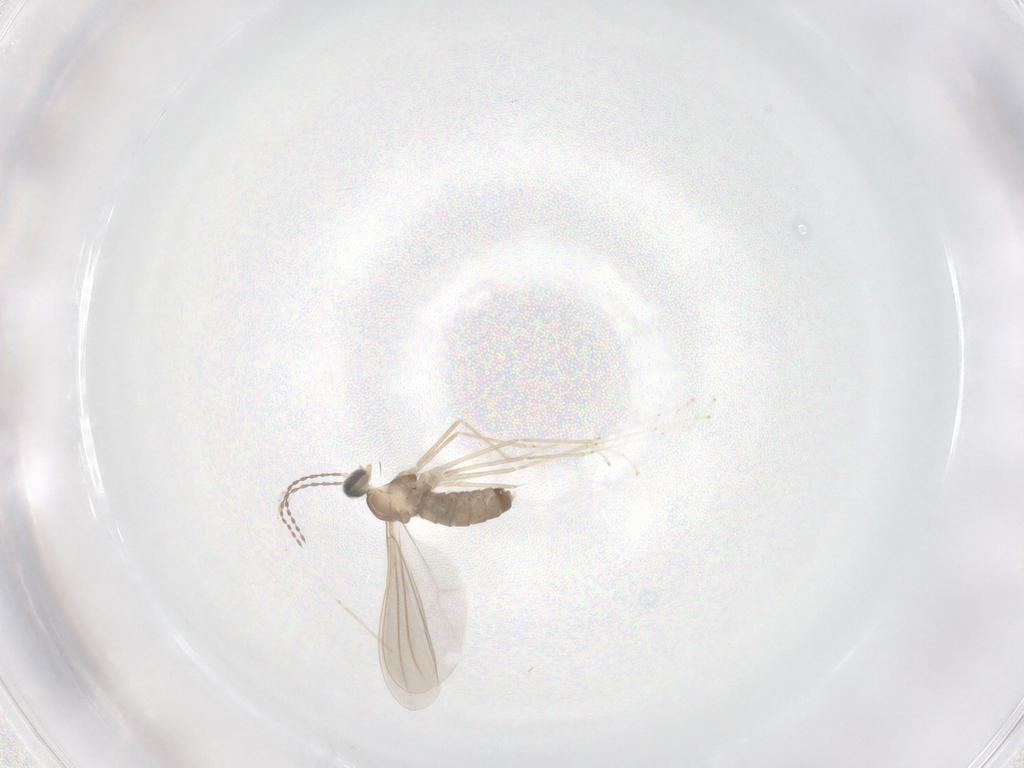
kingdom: Animalia
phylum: Arthropoda
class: Insecta
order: Diptera
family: Cecidomyiidae
